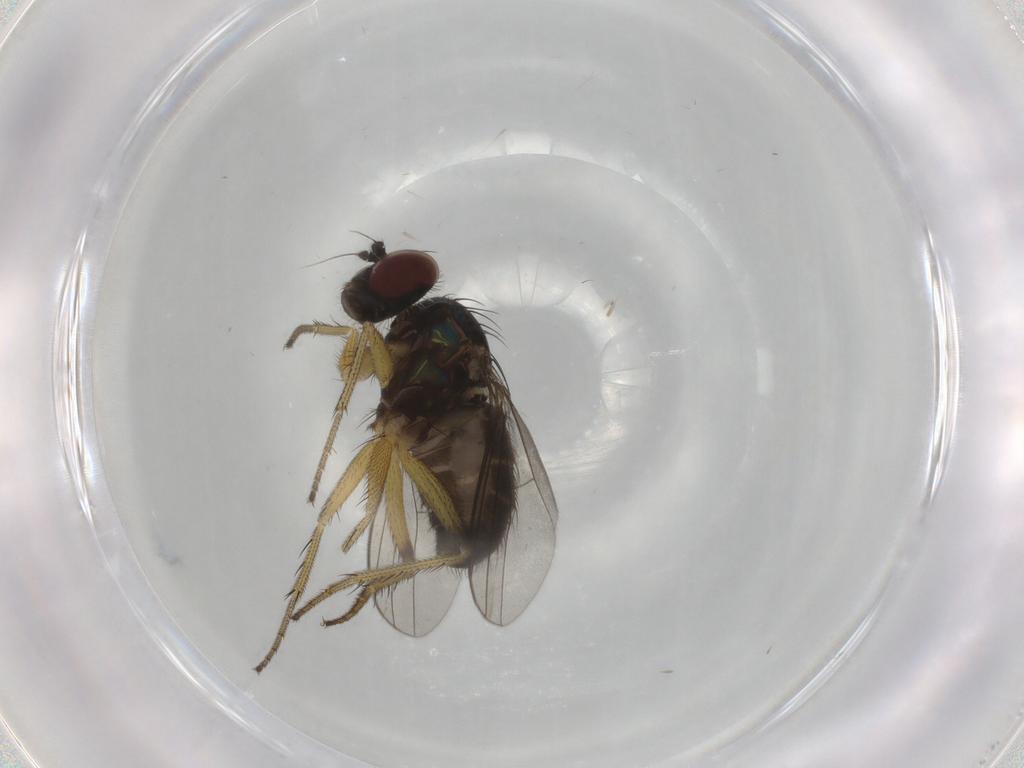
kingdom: Animalia
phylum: Arthropoda
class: Insecta
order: Diptera
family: Dolichopodidae
